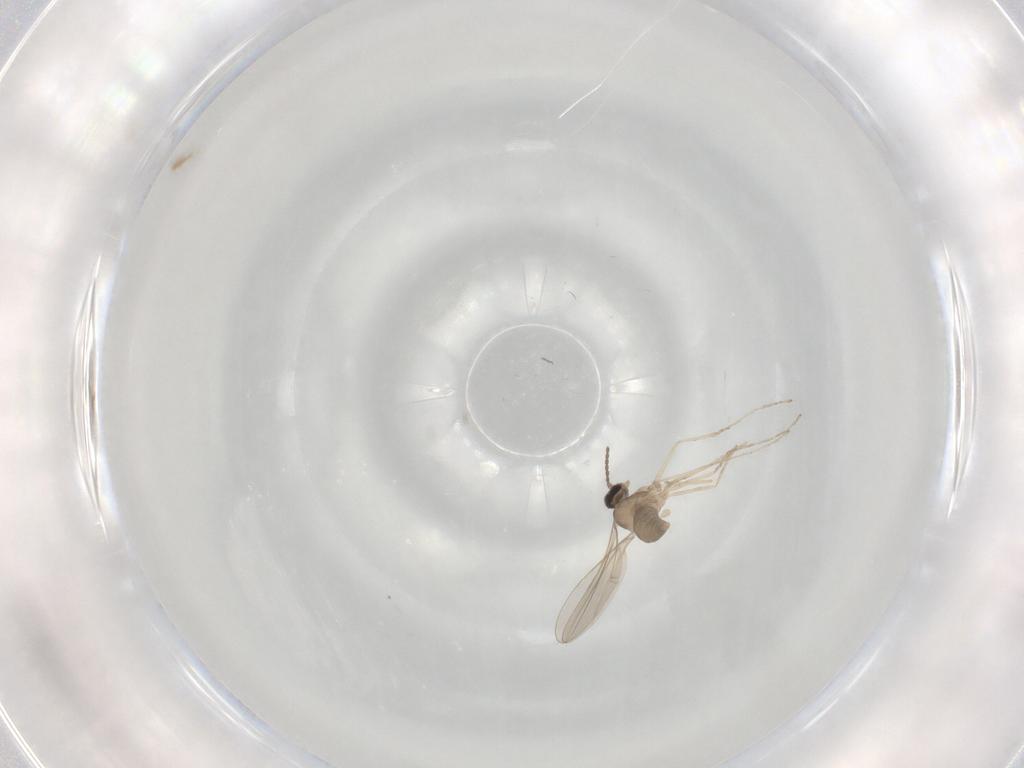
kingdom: Animalia
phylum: Arthropoda
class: Insecta
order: Diptera
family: Cecidomyiidae
